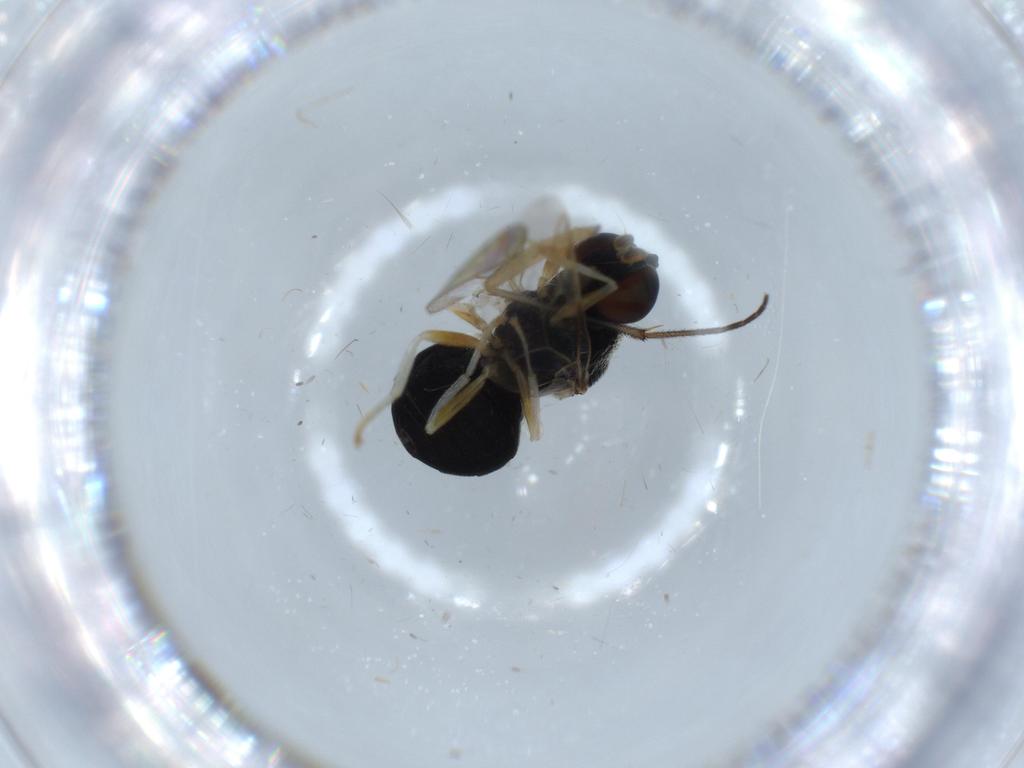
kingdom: Animalia
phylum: Arthropoda
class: Insecta
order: Diptera
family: Stratiomyidae
